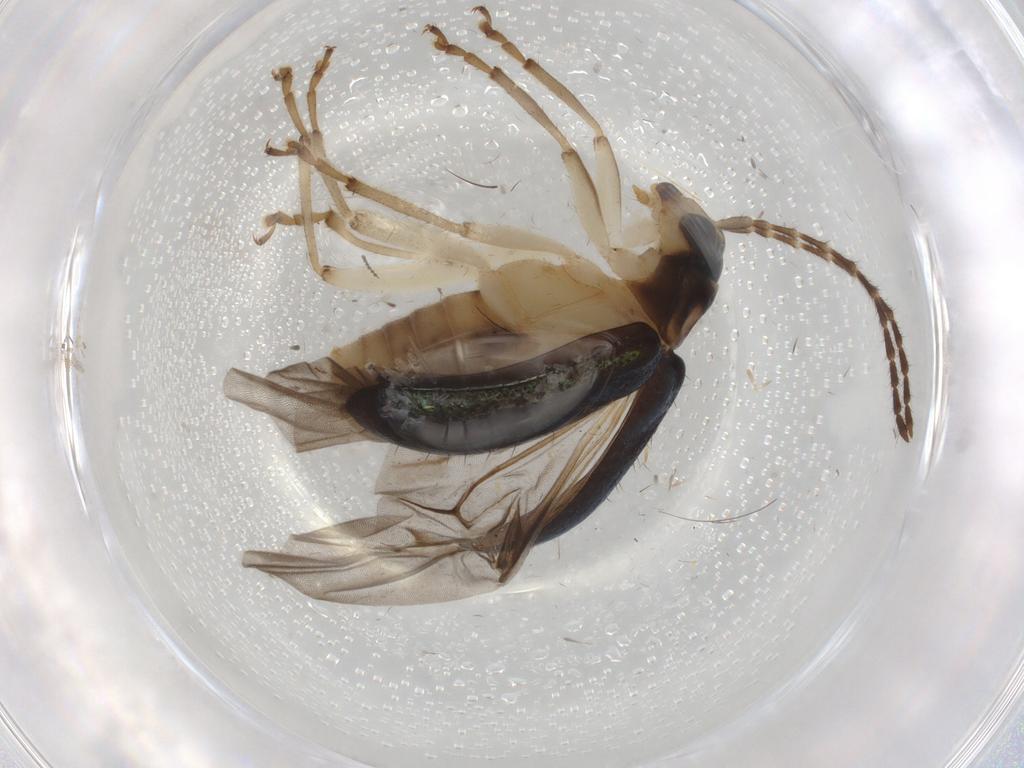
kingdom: Animalia
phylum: Arthropoda
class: Insecta
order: Coleoptera
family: Chrysomelidae
